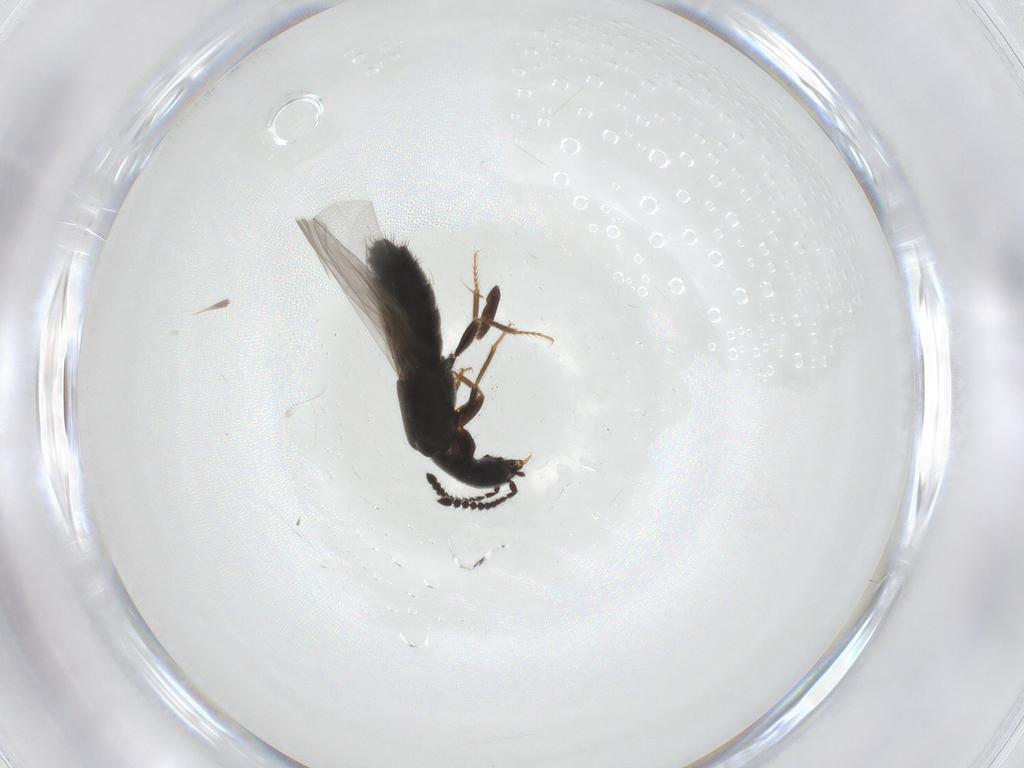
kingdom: Animalia
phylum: Arthropoda
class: Insecta
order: Coleoptera
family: Staphylinidae
